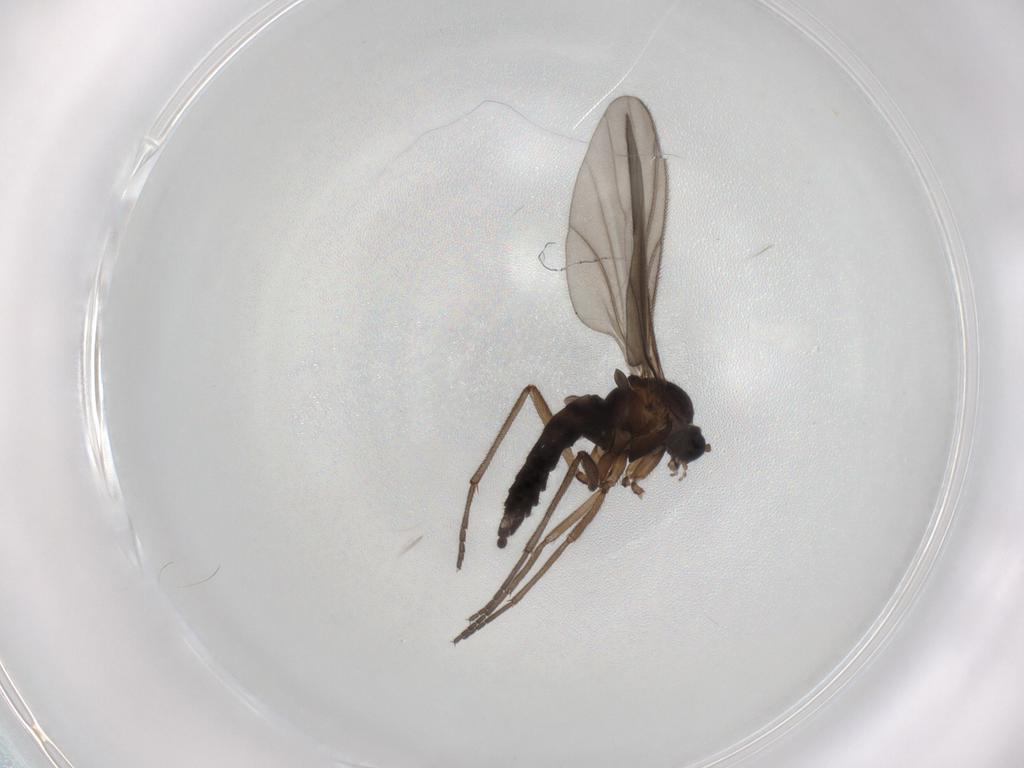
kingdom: Animalia
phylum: Arthropoda
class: Insecta
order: Diptera
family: Sciaridae
